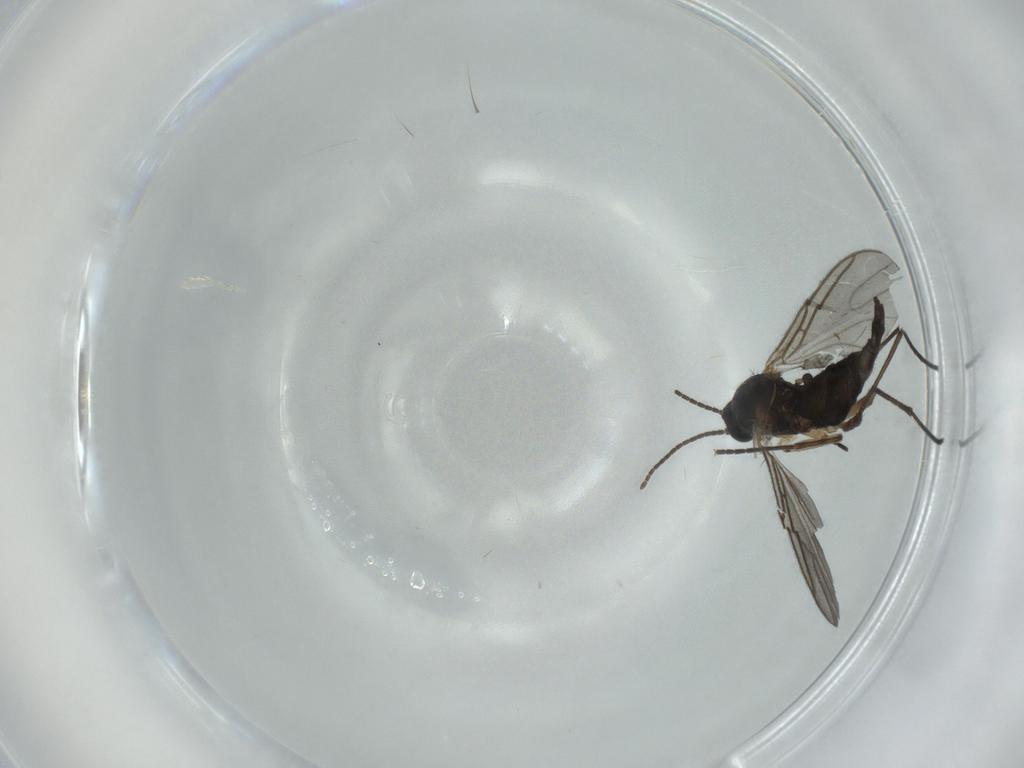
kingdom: Animalia
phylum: Arthropoda
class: Insecta
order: Diptera
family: Sciaridae
